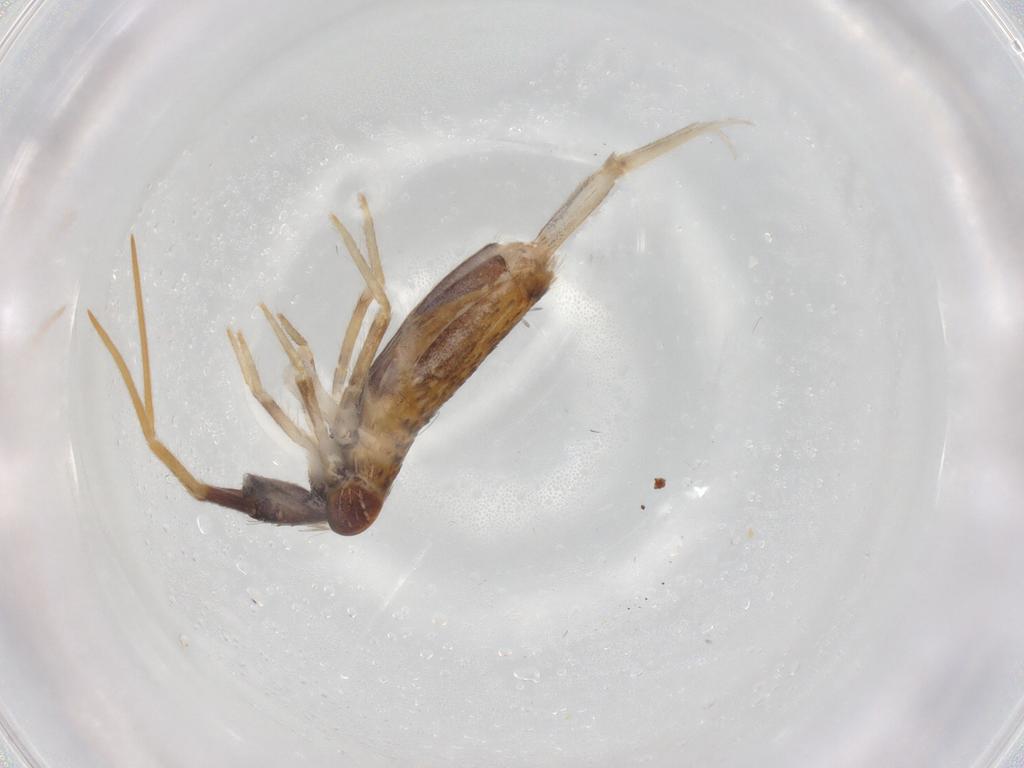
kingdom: Animalia
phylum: Arthropoda
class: Collembola
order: Entomobryomorpha
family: Entomobryidae
